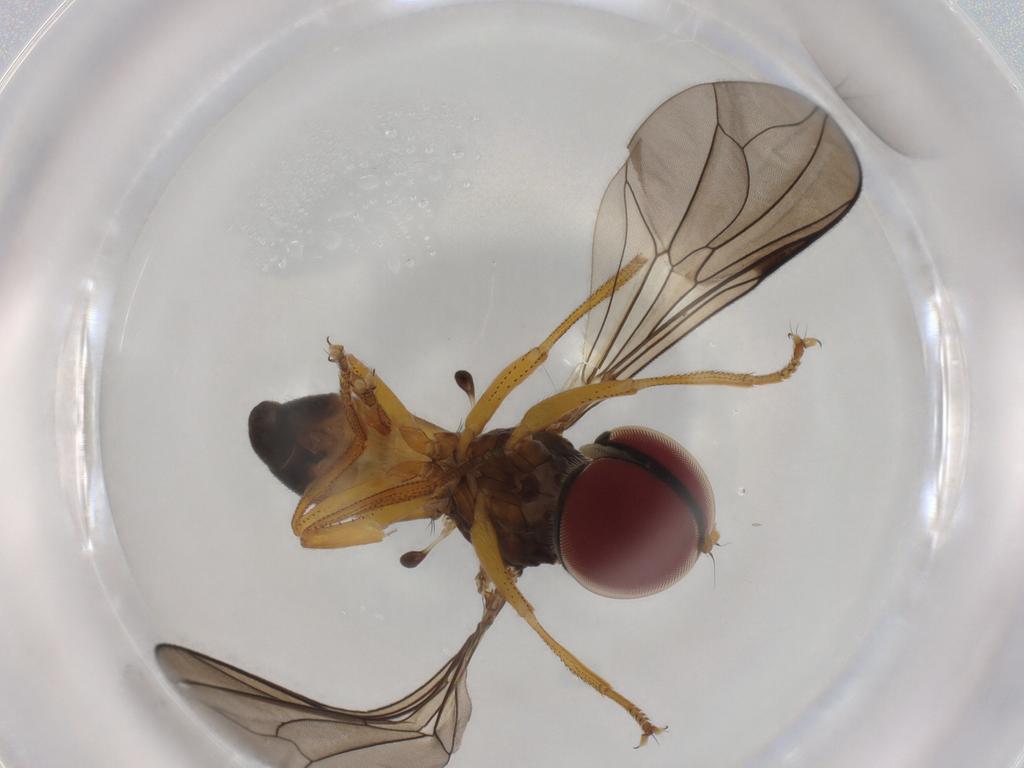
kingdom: Animalia
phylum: Arthropoda
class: Insecta
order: Diptera
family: Pipunculidae
